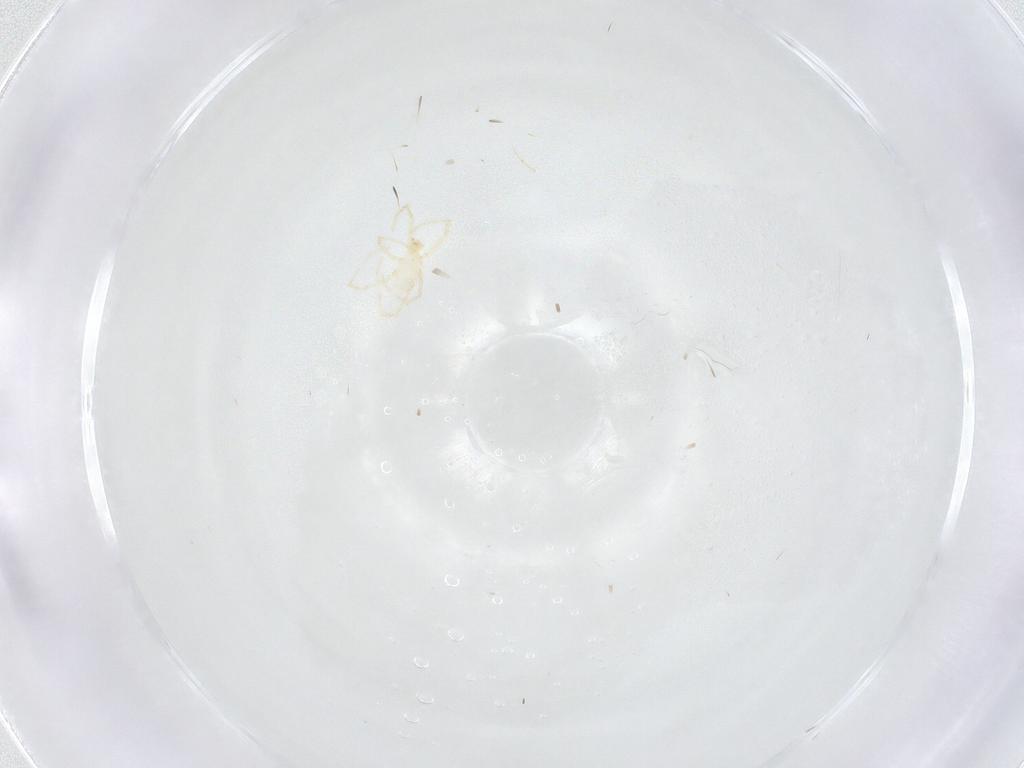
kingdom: Animalia
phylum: Arthropoda
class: Arachnida
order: Trombidiformes
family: Erythraeidae
